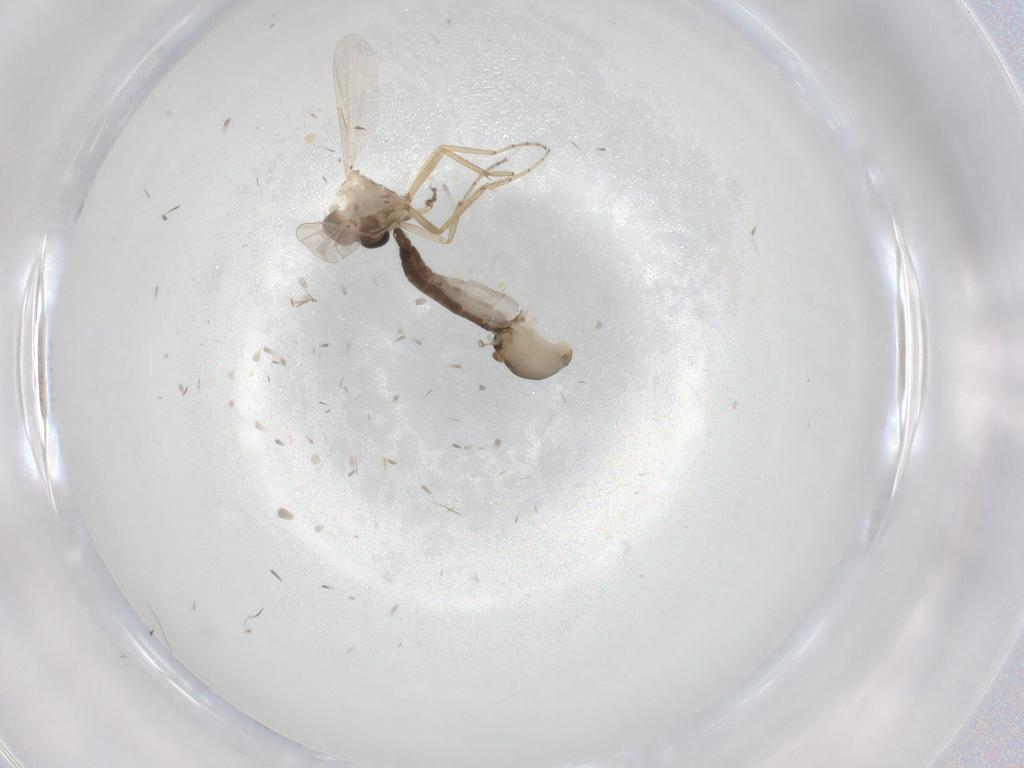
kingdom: Animalia
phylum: Arthropoda
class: Insecta
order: Diptera
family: Ceratopogonidae
